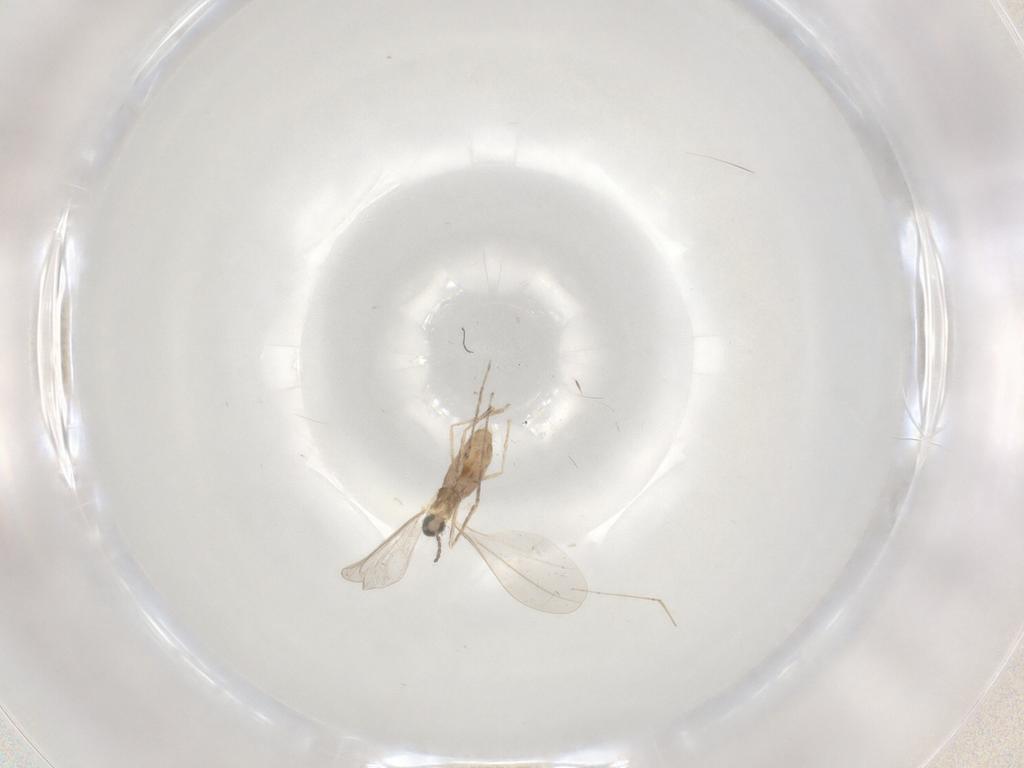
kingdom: Animalia
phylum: Arthropoda
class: Insecta
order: Diptera
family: Cecidomyiidae
